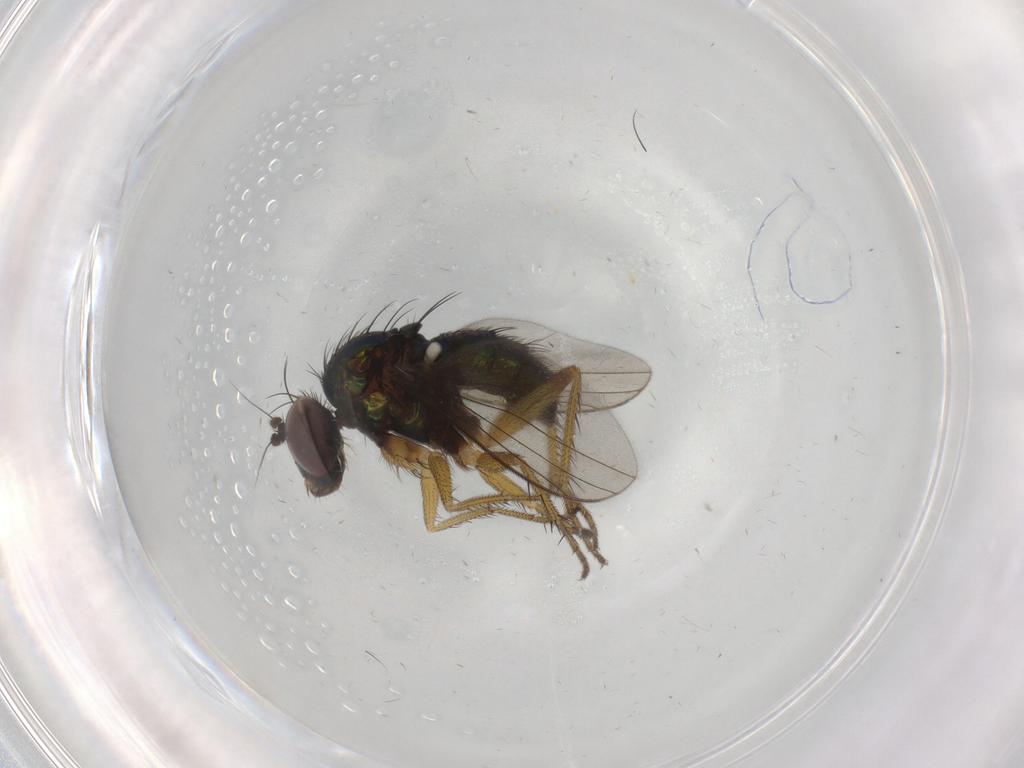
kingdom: Animalia
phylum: Arthropoda
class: Insecta
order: Diptera
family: Dolichopodidae
